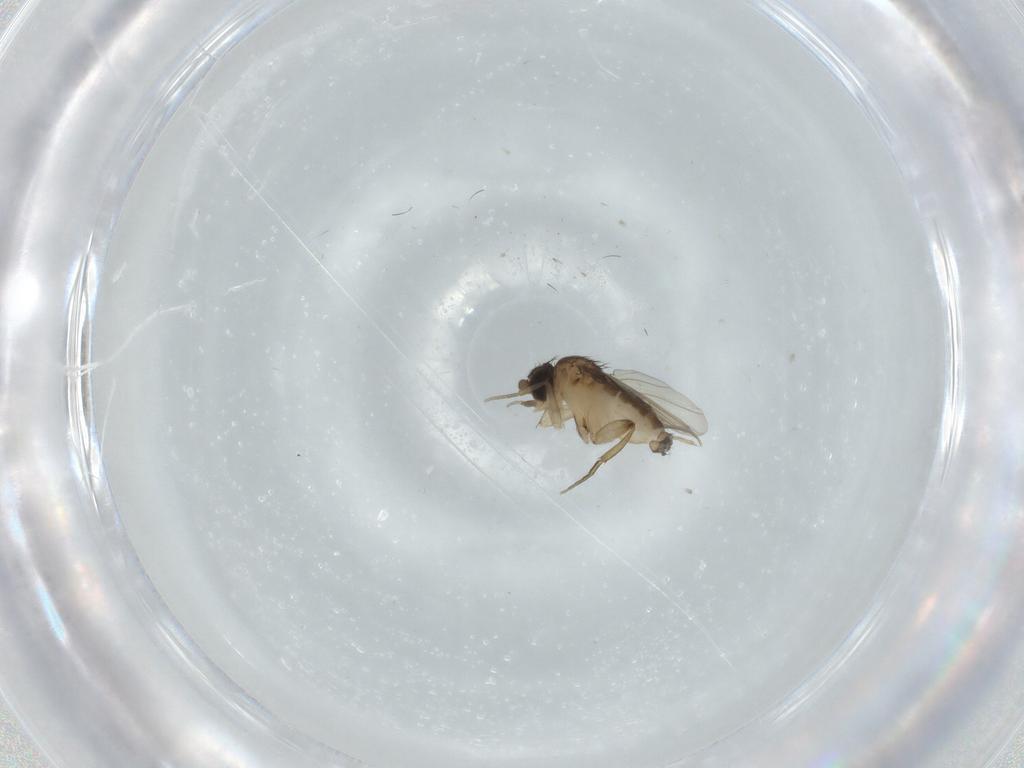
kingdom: Animalia
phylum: Arthropoda
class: Insecta
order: Diptera
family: Phoridae
